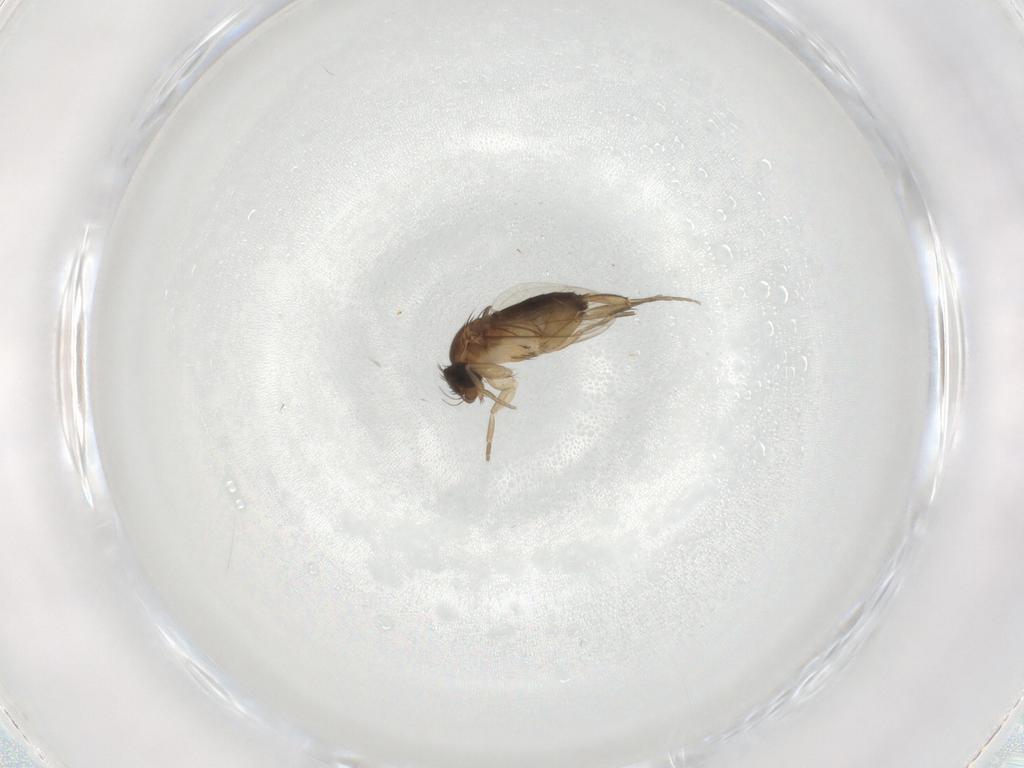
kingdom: Animalia
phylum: Arthropoda
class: Insecta
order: Diptera
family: Phoridae
